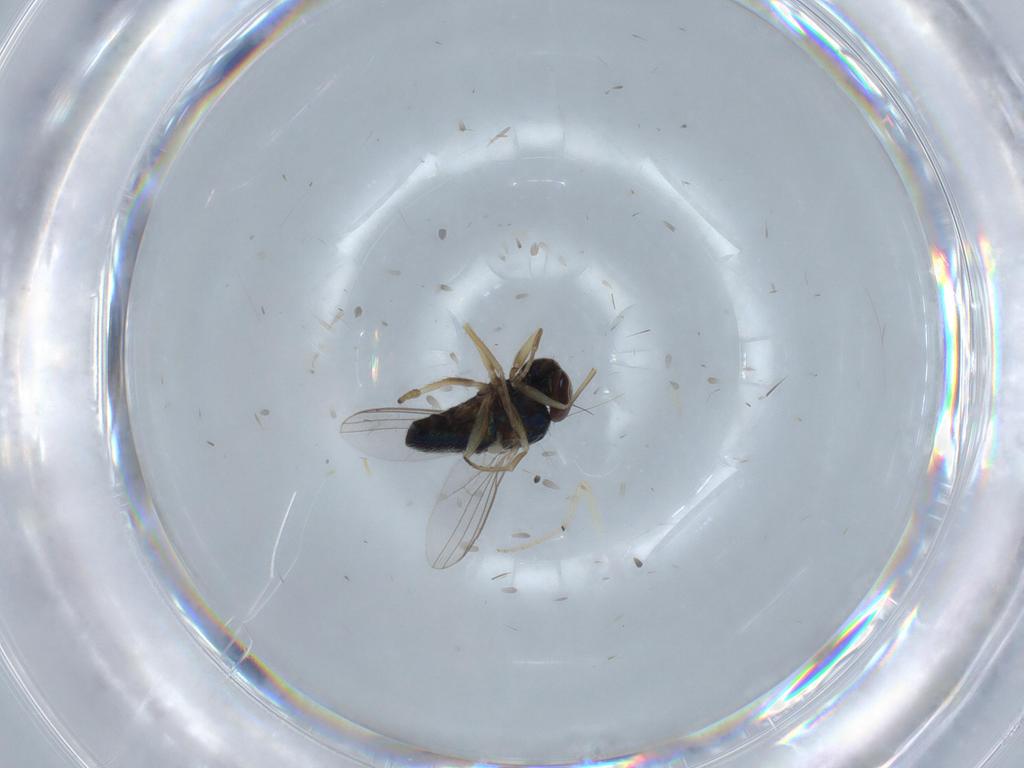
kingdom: Animalia
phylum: Arthropoda
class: Insecta
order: Diptera
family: Dolichopodidae
